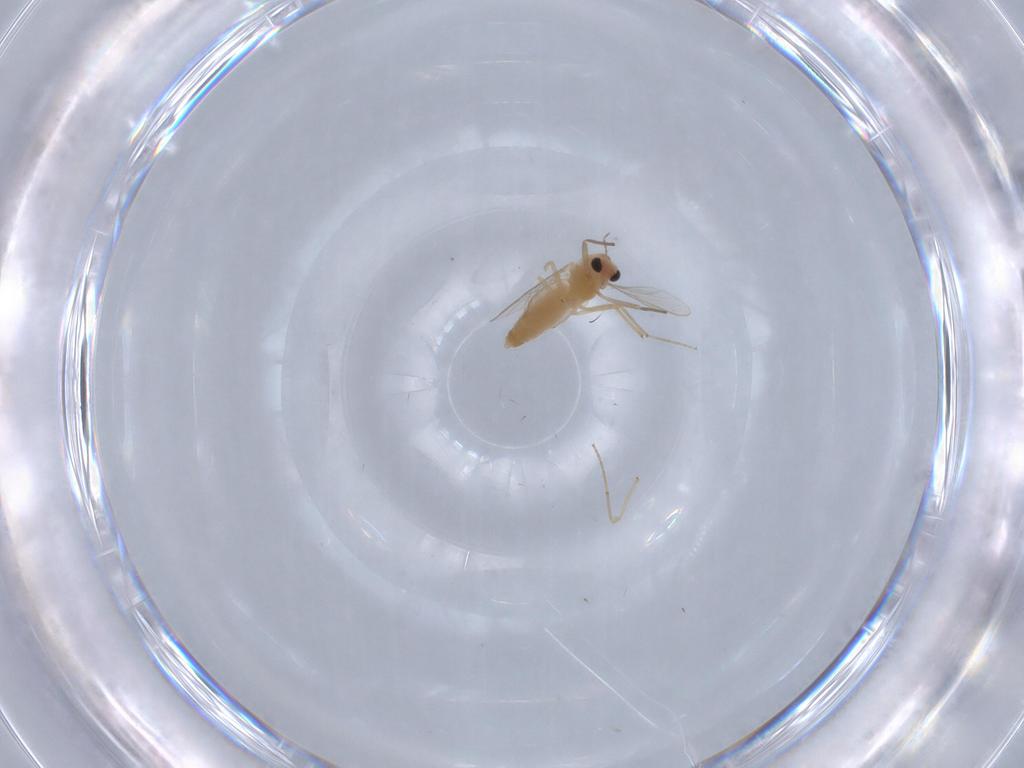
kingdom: Animalia
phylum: Arthropoda
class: Insecta
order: Diptera
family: Chironomidae
